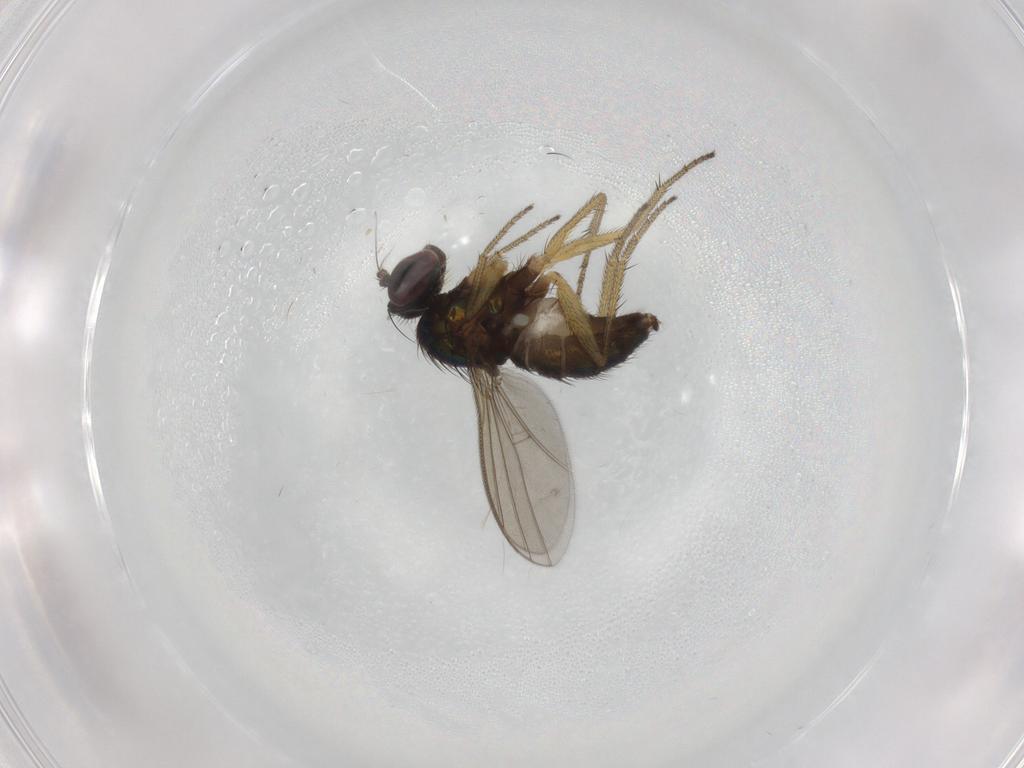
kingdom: Animalia
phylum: Arthropoda
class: Insecta
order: Diptera
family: Dolichopodidae
